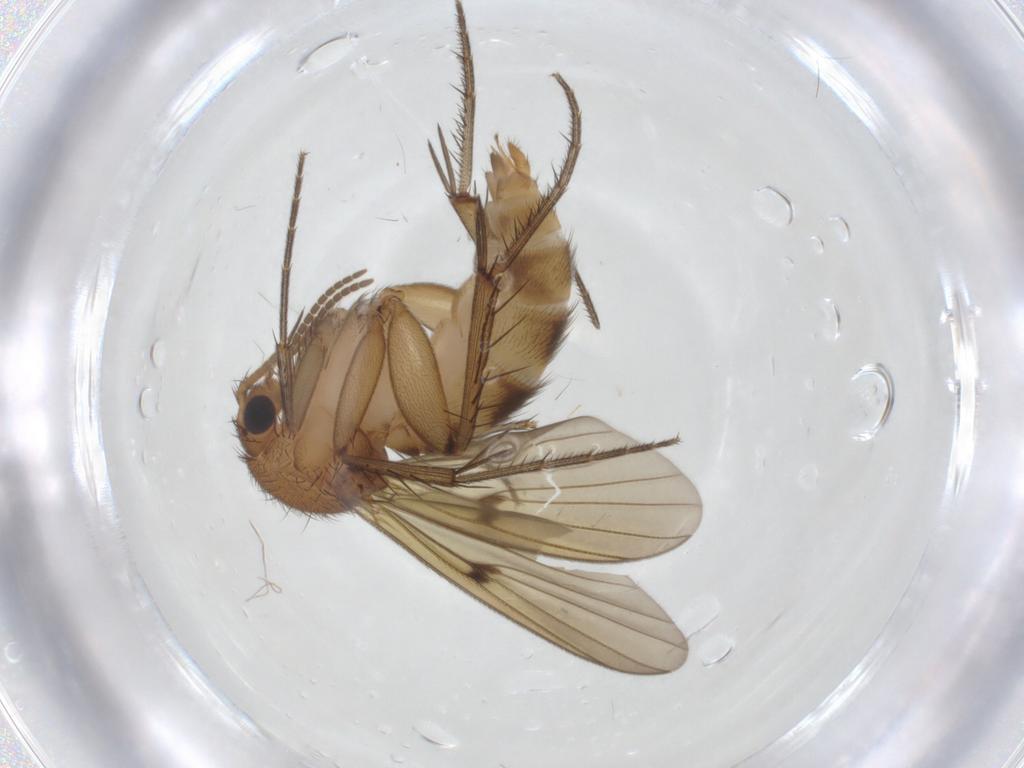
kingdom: Animalia
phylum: Arthropoda
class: Insecta
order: Diptera
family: Mycetophilidae
